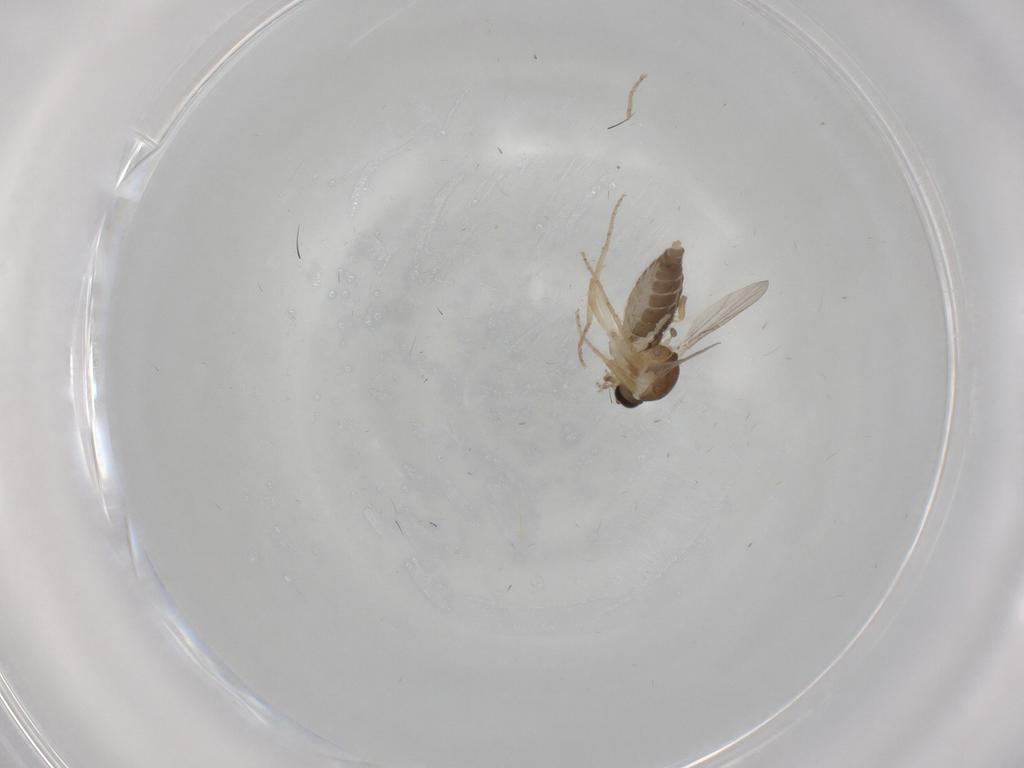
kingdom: Animalia
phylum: Arthropoda
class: Insecta
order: Diptera
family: Ceratopogonidae
